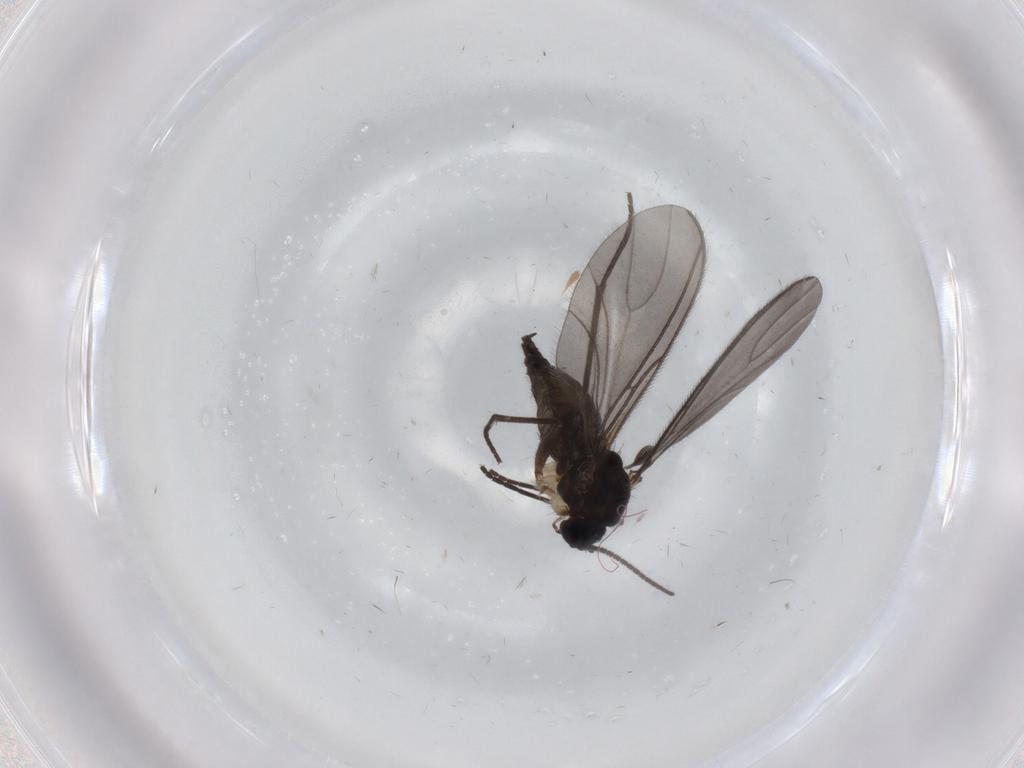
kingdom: Animalia
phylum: Arthropoda
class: Insecta
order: Diptera
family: Sciaridae
